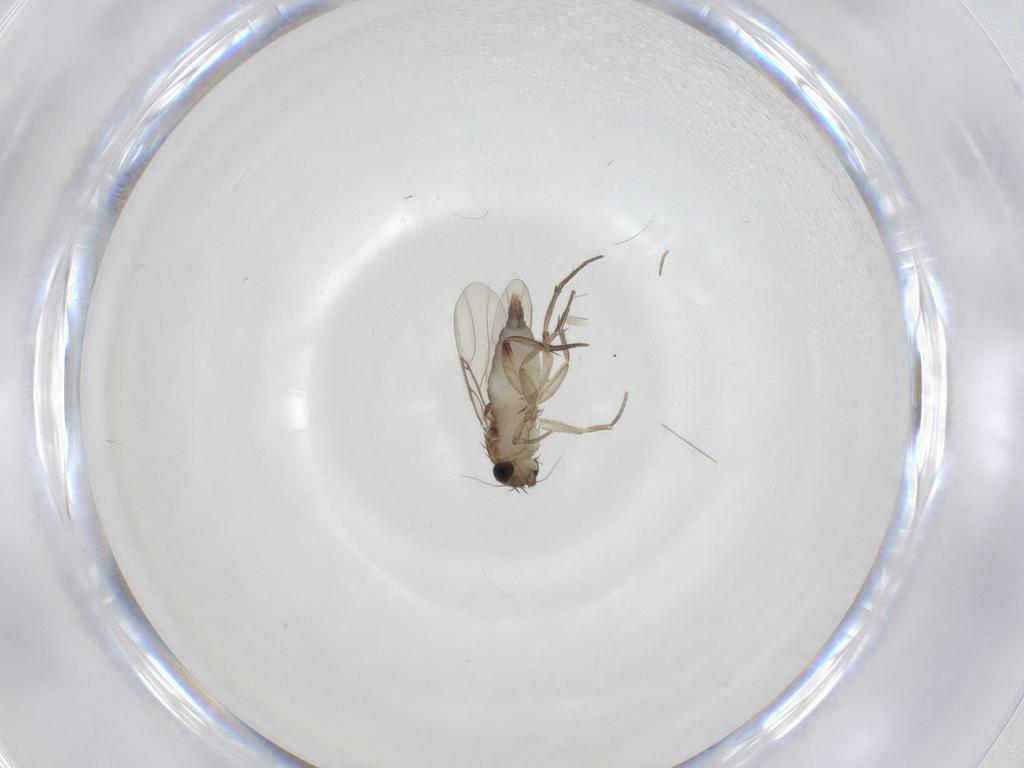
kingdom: Animalia
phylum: Arthropoda
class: Insecta
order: Diptera
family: Phoridae
